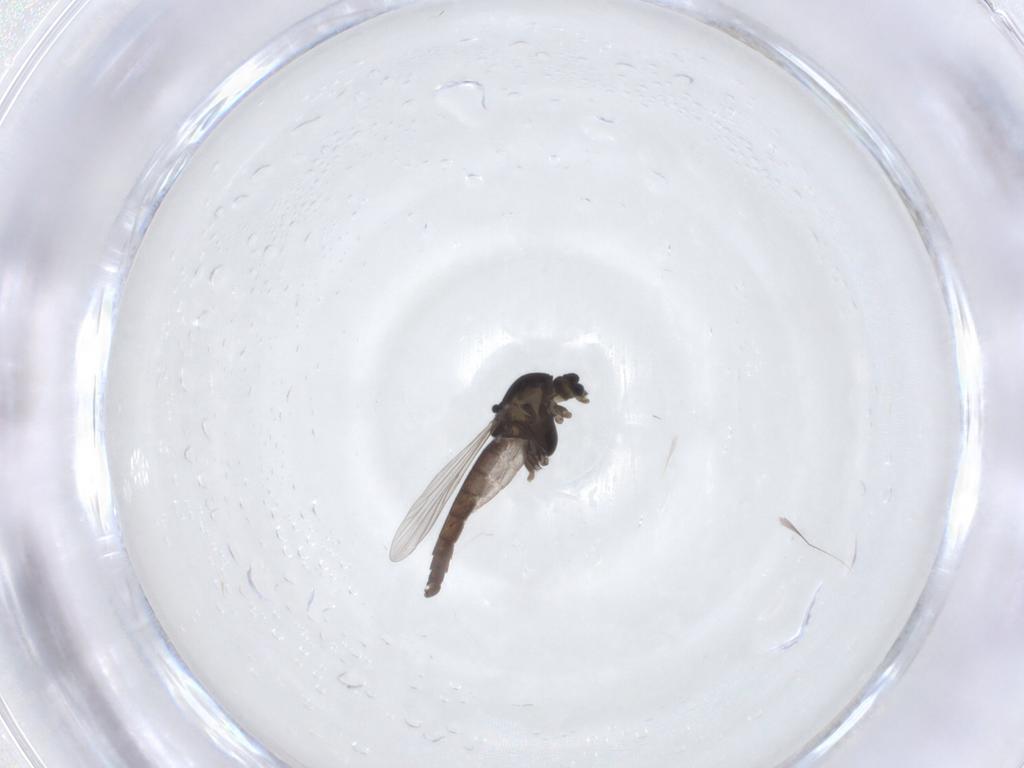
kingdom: Animalia
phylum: Arthropoda
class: Insecta
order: Diptera
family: Chironomidae
